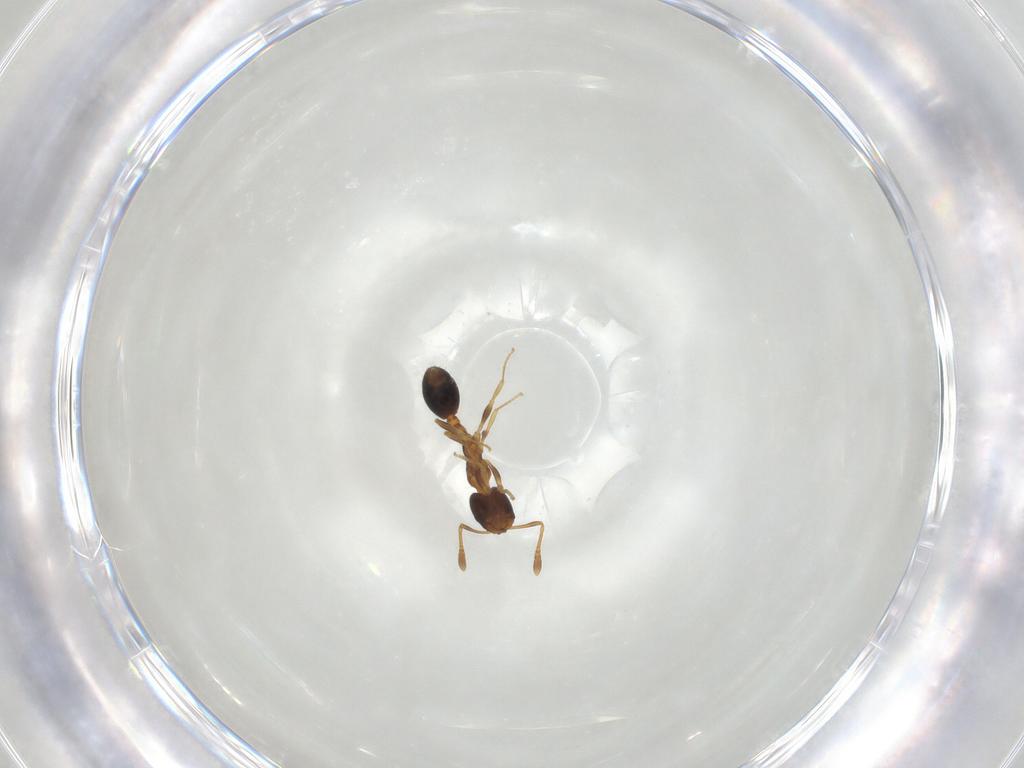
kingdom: Animalia
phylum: Arthropoda
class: Insecta
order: Hymenoptera
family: Formicidae
